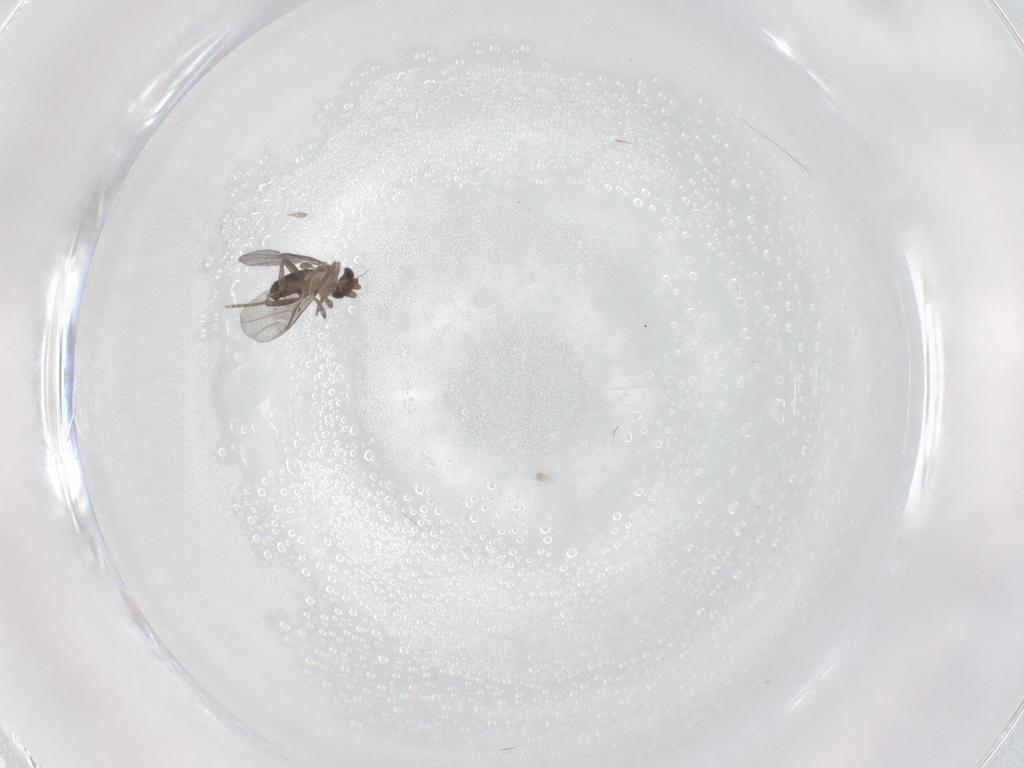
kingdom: Animalia
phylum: Arthropoda
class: Insecta
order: Diptera
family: Phoridae
